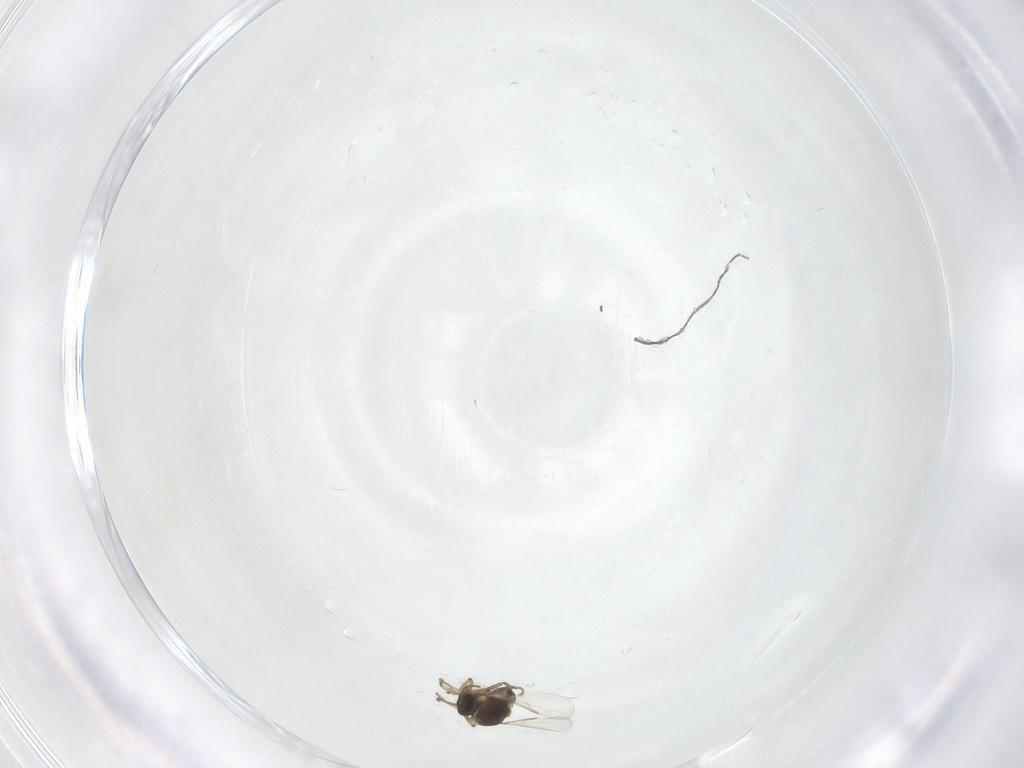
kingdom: Animalia
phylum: Arthropoda
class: Insecta
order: Diptera
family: Ceratopogonidae
